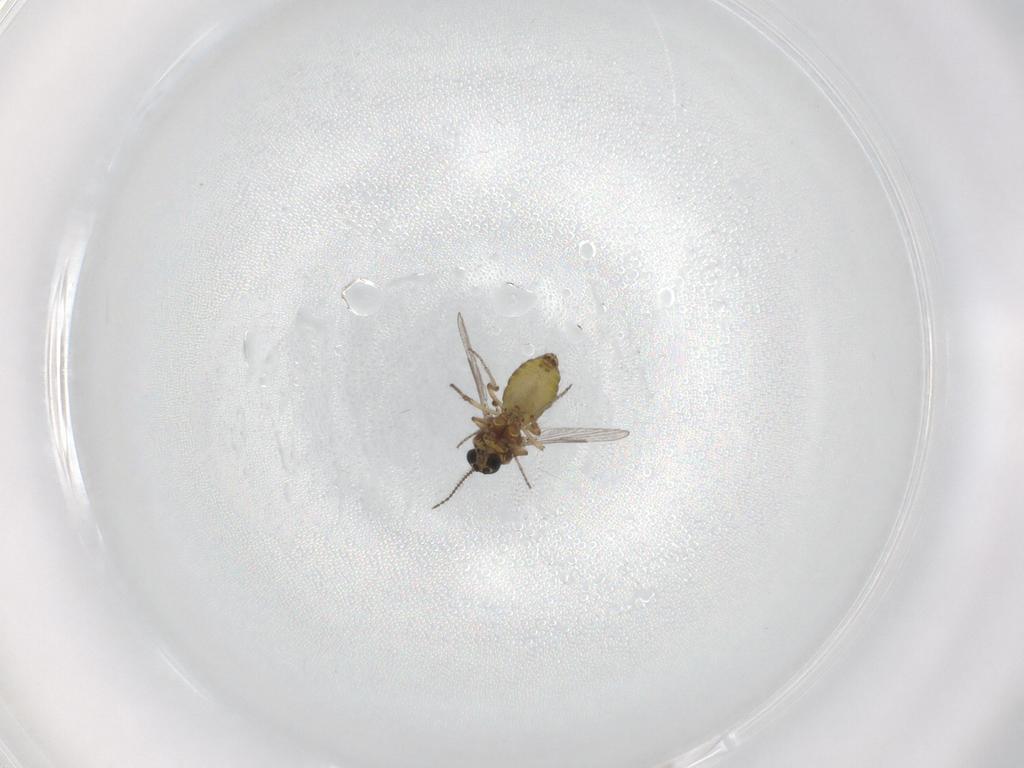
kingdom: Animalia
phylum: Arthropoda
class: Insecta
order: Diptera
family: Ceratopogonidae
